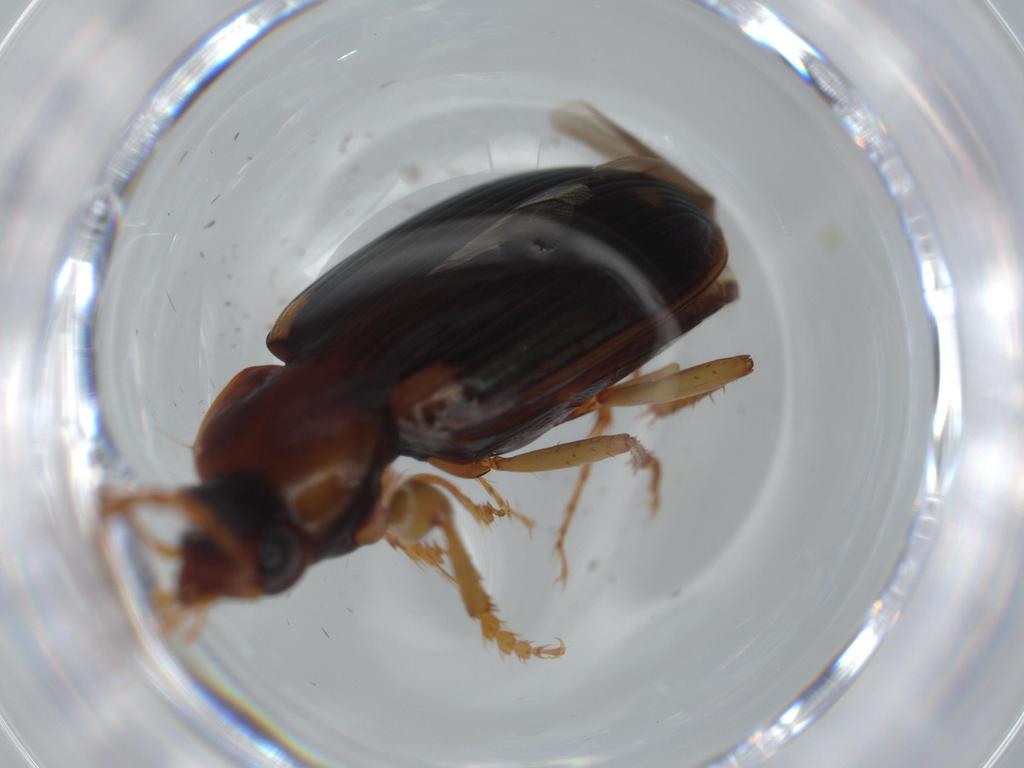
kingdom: Animalia
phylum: Arthropoda
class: Insecta
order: Coleoptera
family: Carabidae
